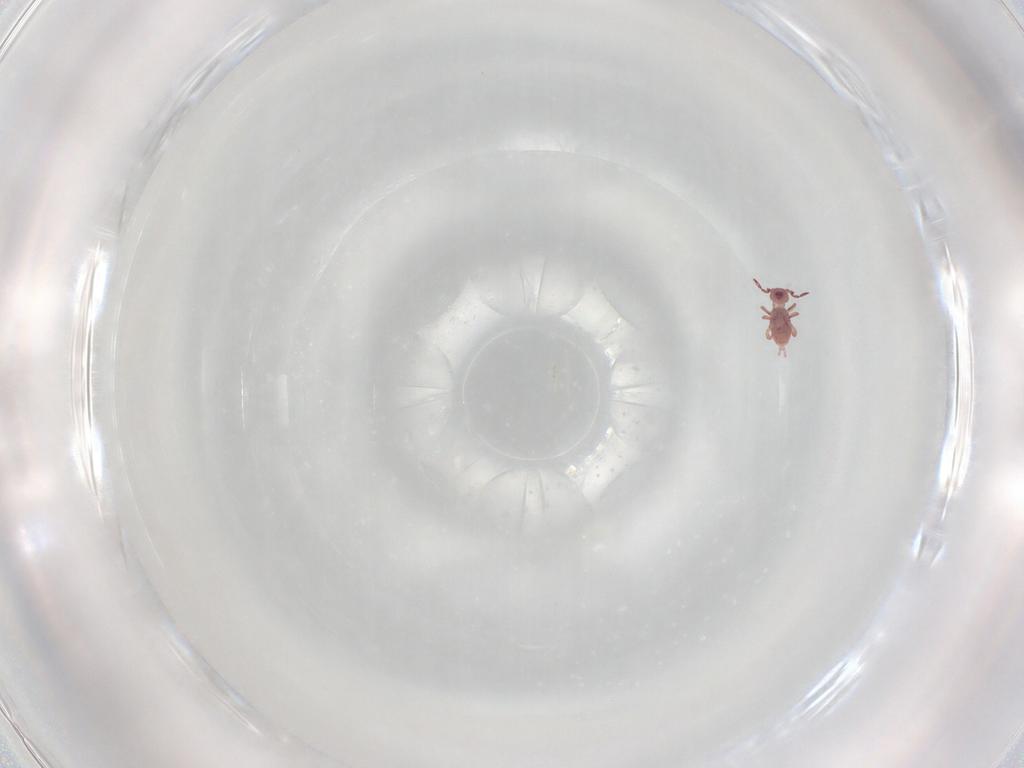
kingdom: Animalia
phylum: Arthropoda
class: Collembola
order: Symphypleona
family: Sminthurididae
